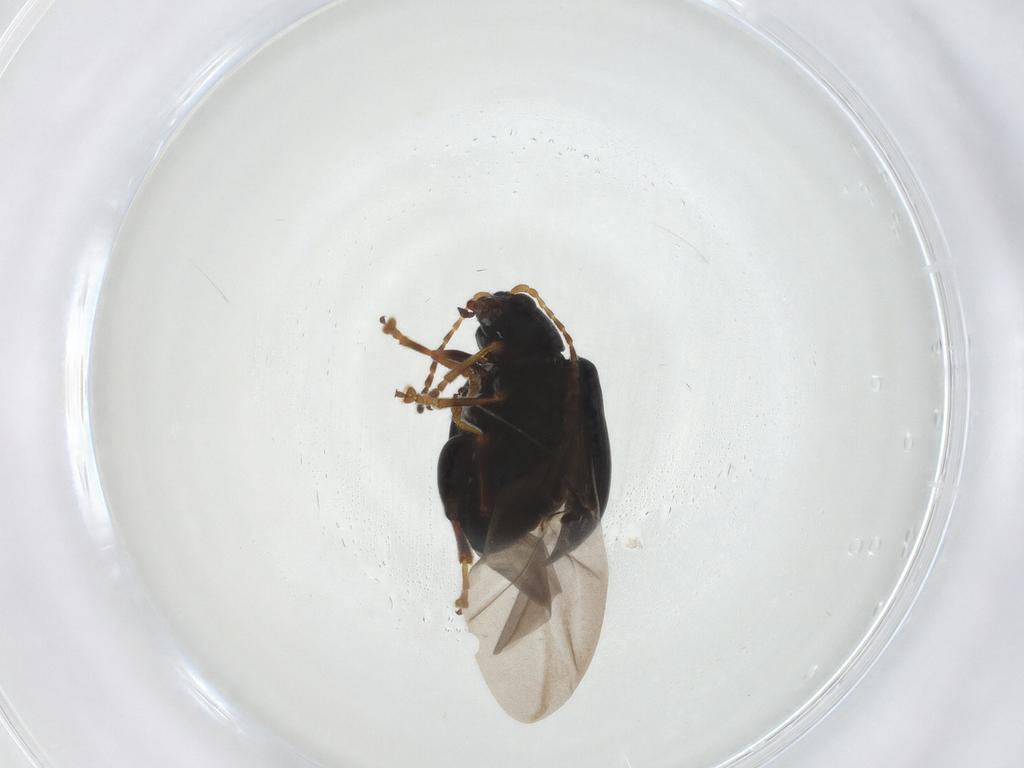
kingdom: Animalia
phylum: Arthropoda
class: Insecta
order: Coleoptera
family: Chrysomelidae
